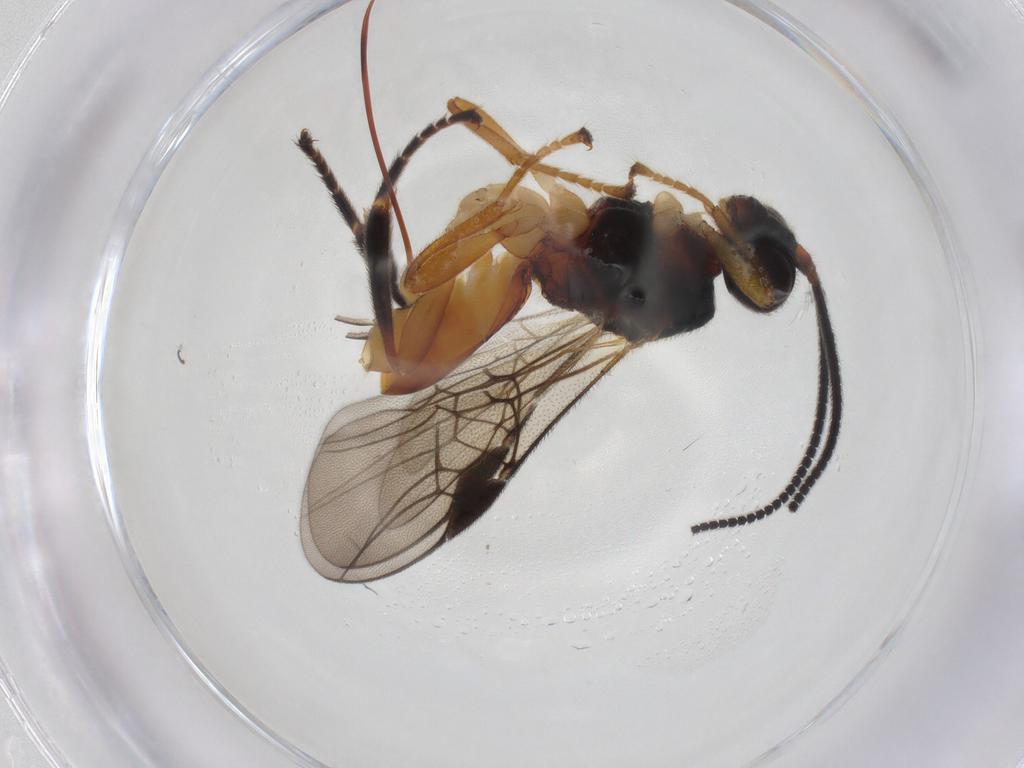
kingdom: Animalia
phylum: Arthropoda
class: Insecta
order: Hymenoptera
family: Braconidae
